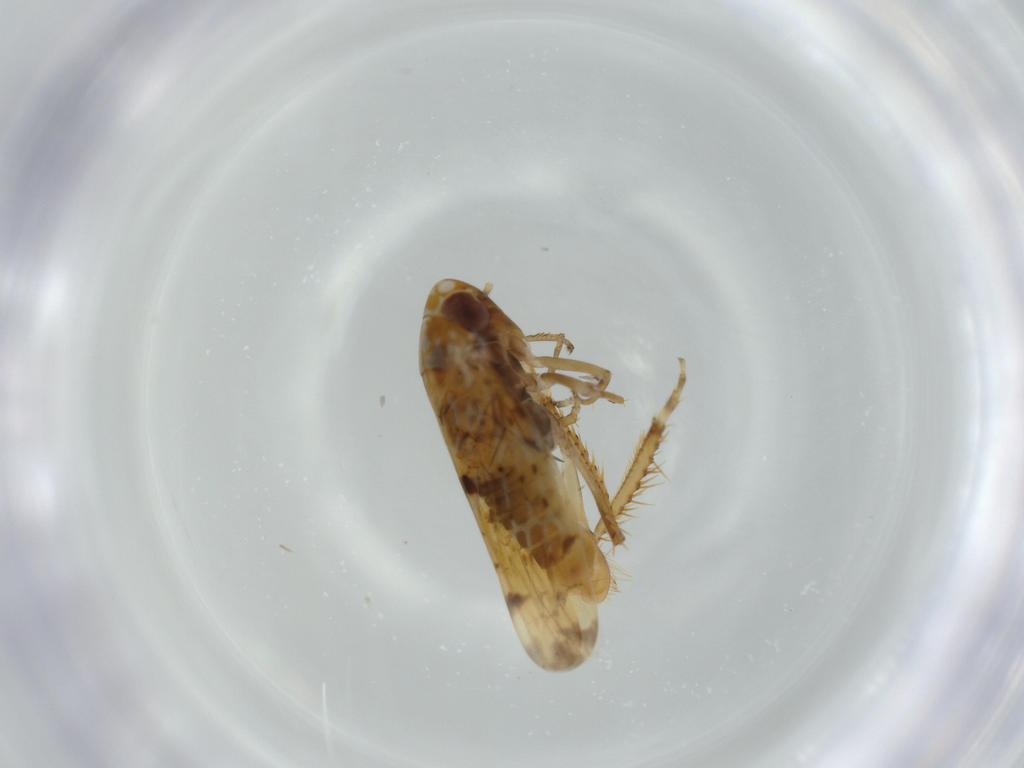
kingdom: Animalia
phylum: Arthropoda
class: Insecta
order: Hemiptera
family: Cicadellidae
